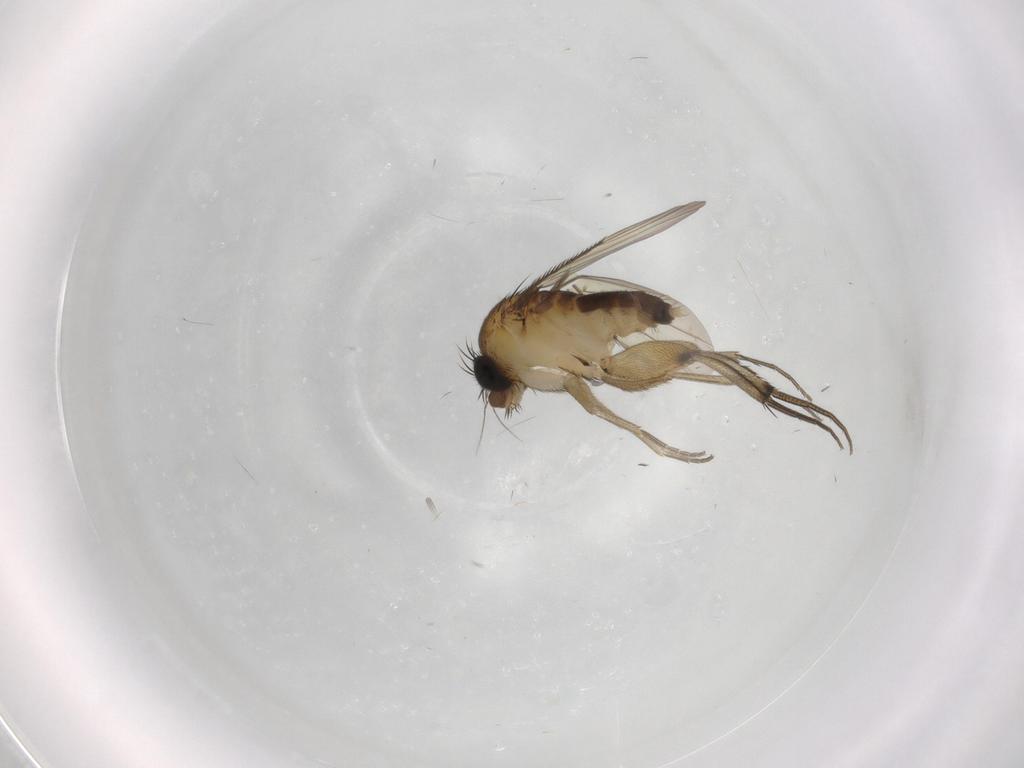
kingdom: Animalia
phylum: Arthropoda
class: Insecta
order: Diptera
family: Phoridae
